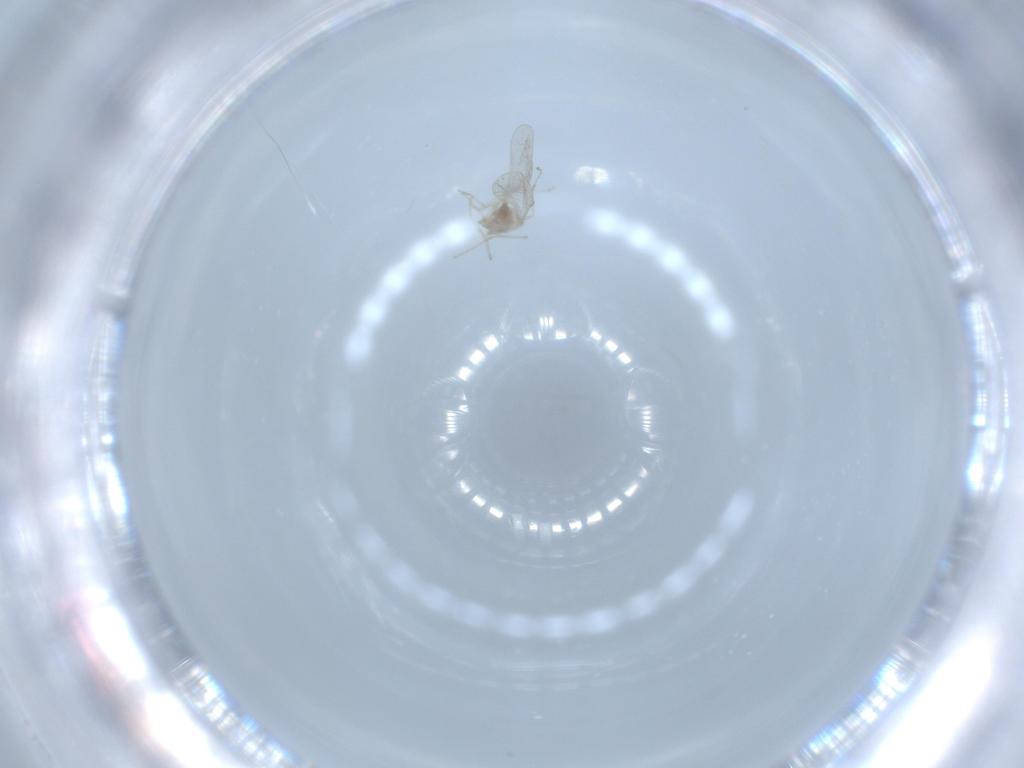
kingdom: Animalia
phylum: Arthropoda
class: Insecta
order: Diptera
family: Cecidomyiidae
